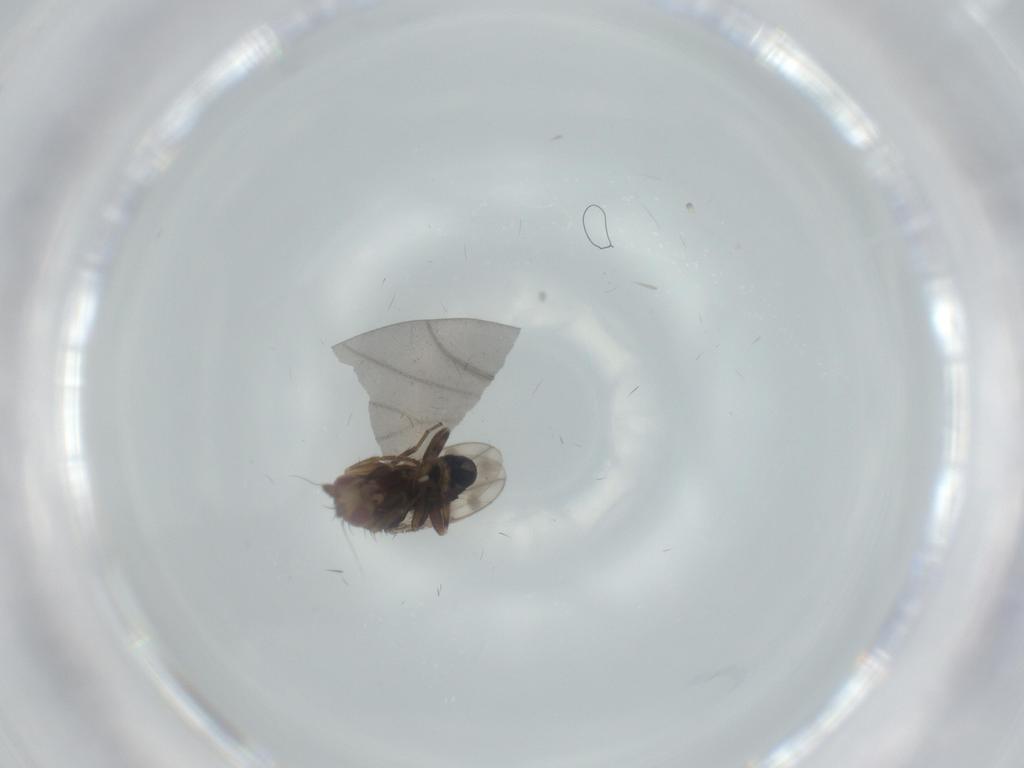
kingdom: Animalia
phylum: Arthropoda
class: Insecta
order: Diptera
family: Sphaeroceridae
